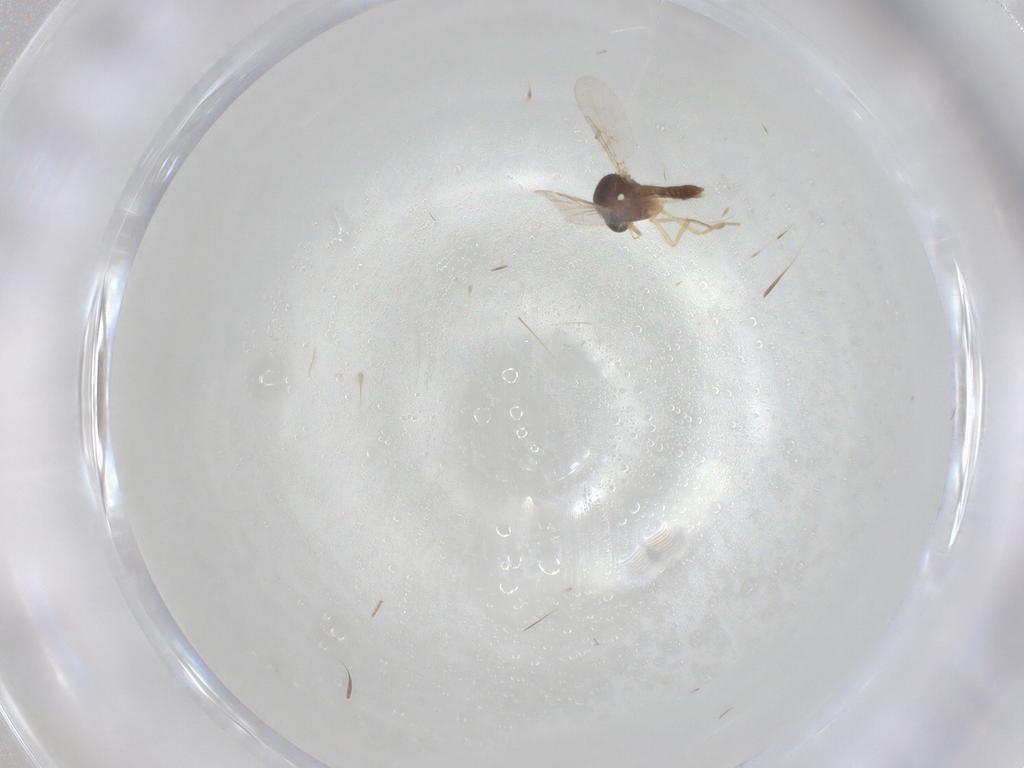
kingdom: Animalia
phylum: Arthropoda
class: Insecta
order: Diptera
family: Ceratopogonidae
